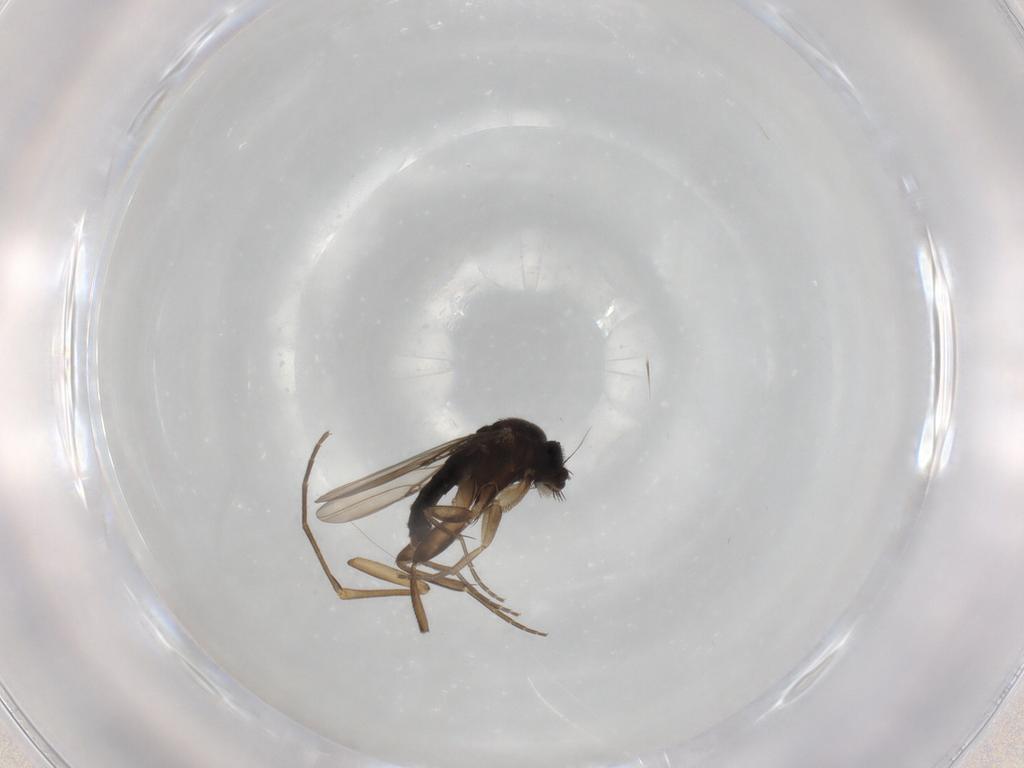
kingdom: Animalia
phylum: Arthropoda
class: Insecta
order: Diptera
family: Phoridae
